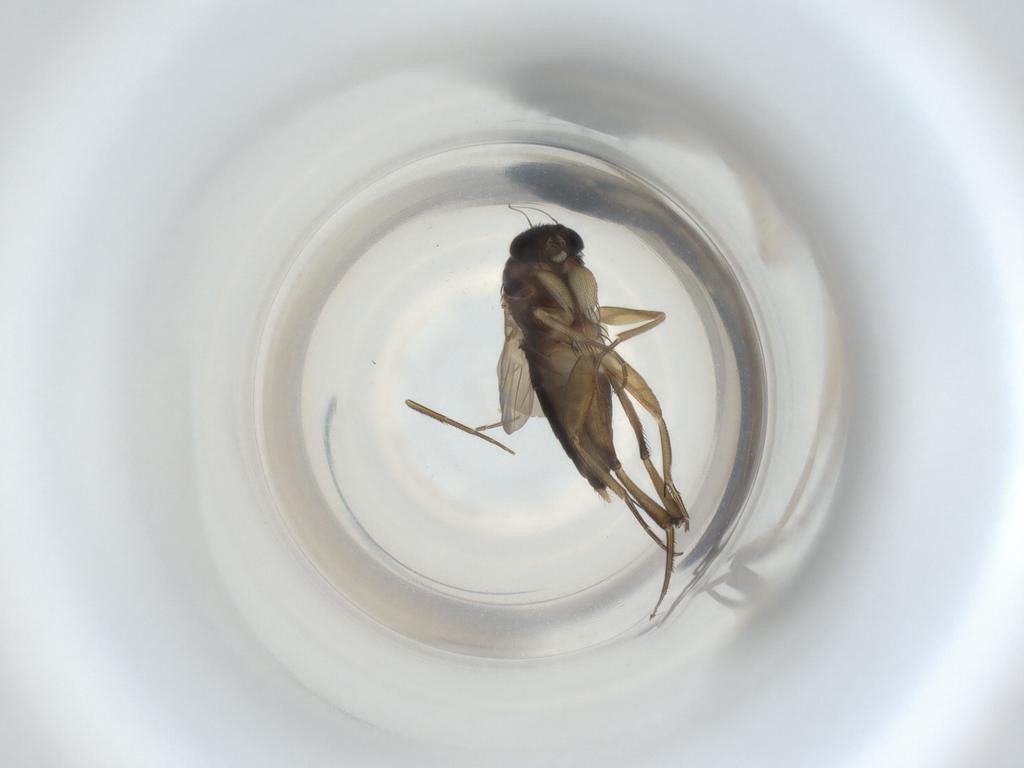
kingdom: Animalia
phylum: Arthropoda
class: Insecta
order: Diptera
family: Phoridae
